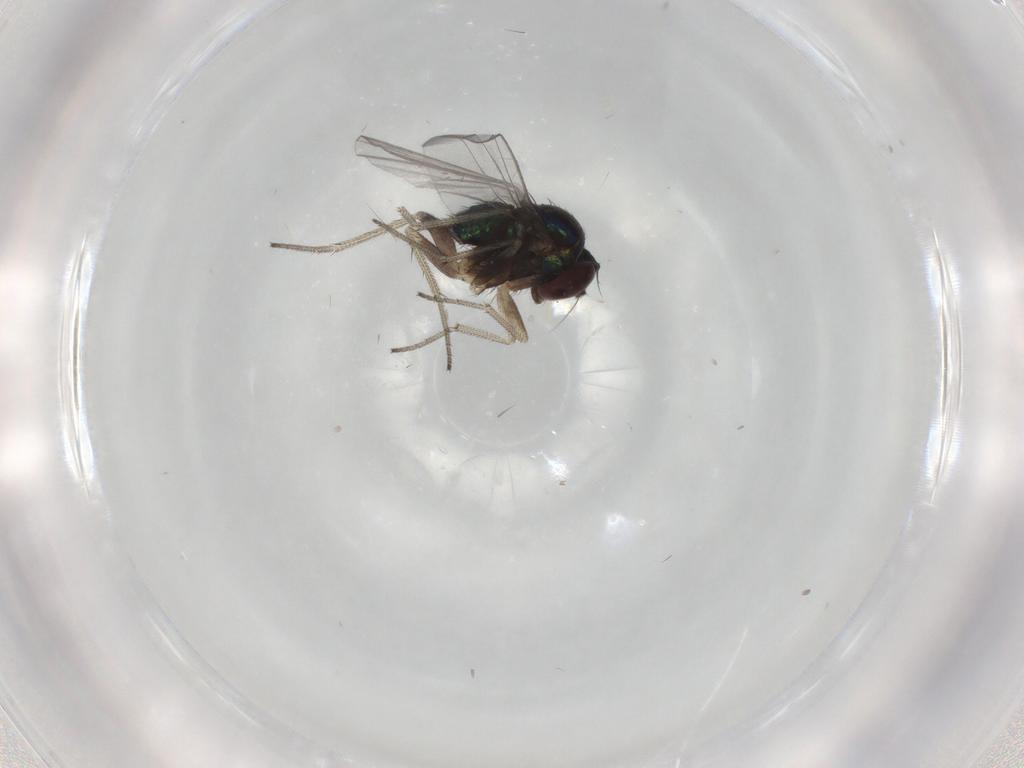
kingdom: Animalia
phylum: Arthropoda
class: Insecta
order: Diptera
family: Dolichopodidae
